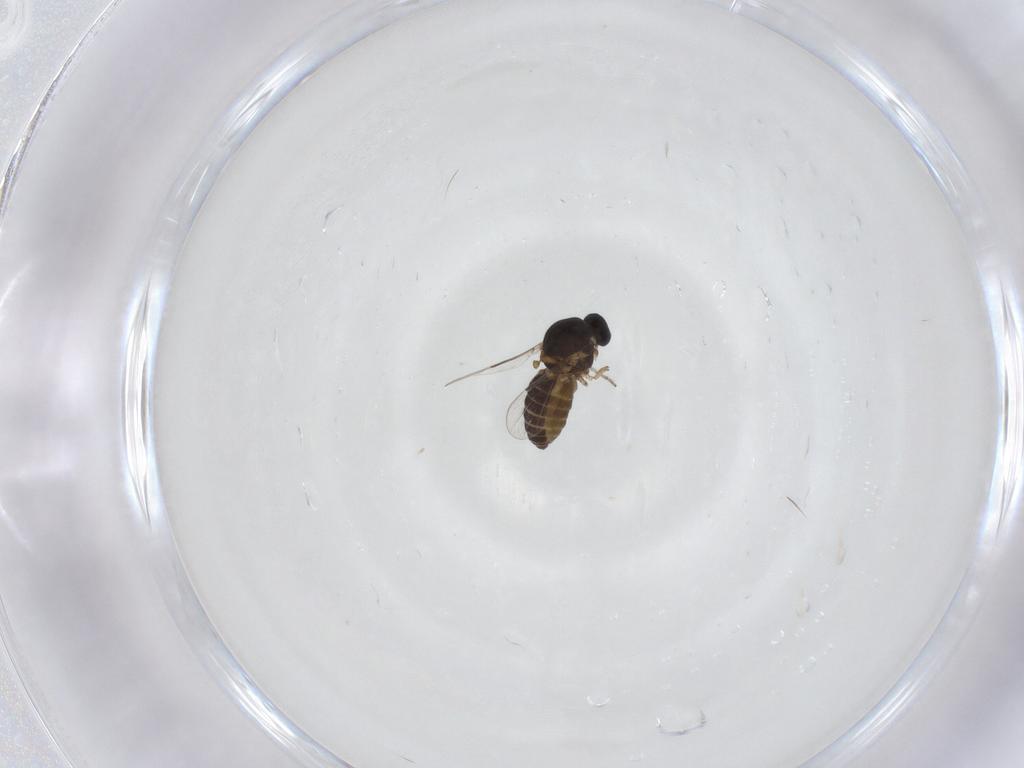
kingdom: Animalia
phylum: Arthropoda
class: Insecta
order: Diptera
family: Ceratopogonidae
